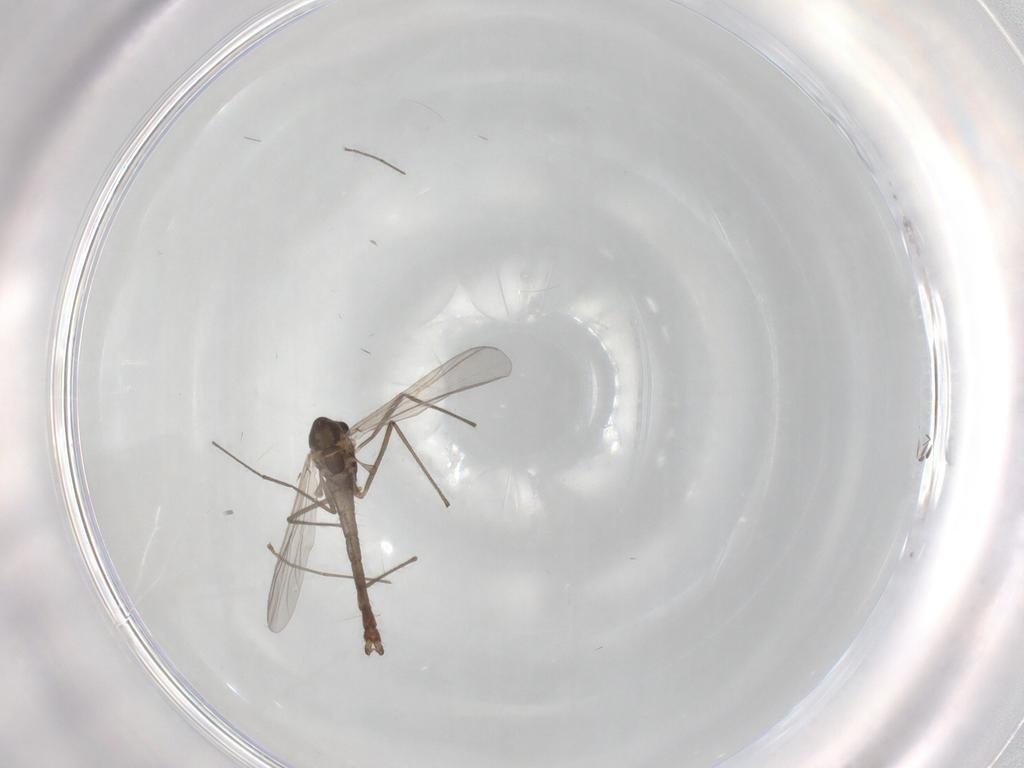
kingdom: Animalia
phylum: Arthropoda
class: Insecta
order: Diptera
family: Chironomidae
